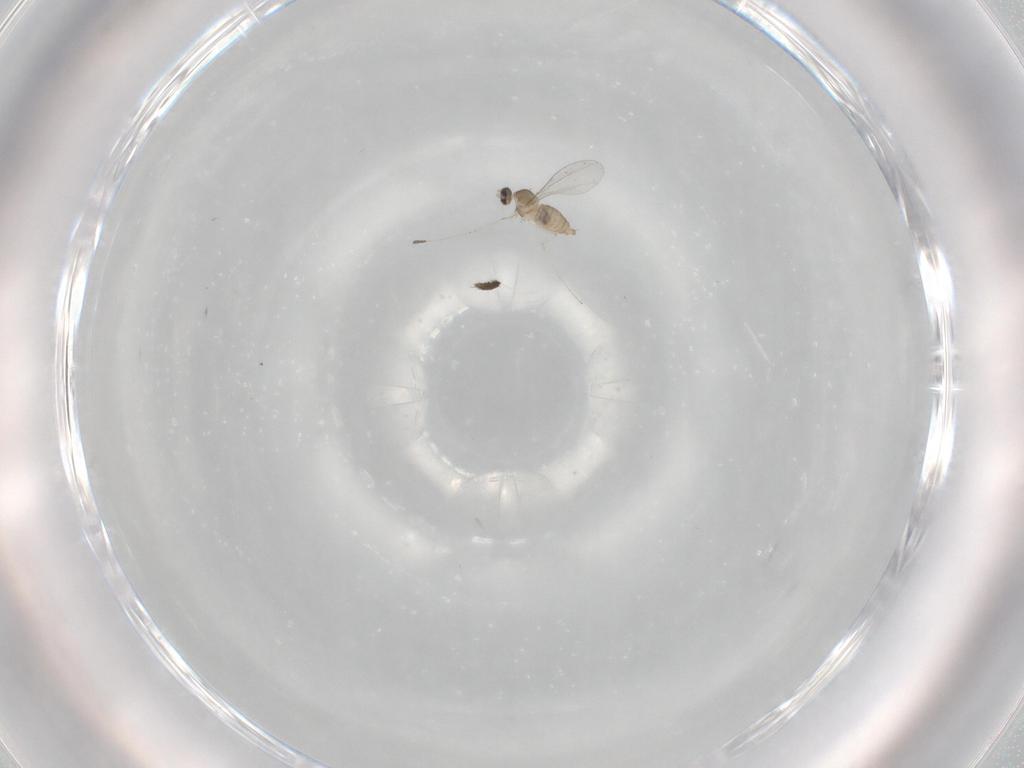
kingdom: Animalia
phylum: Arthropoda
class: Insecta
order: Diptera
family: Cecidomyiidae
